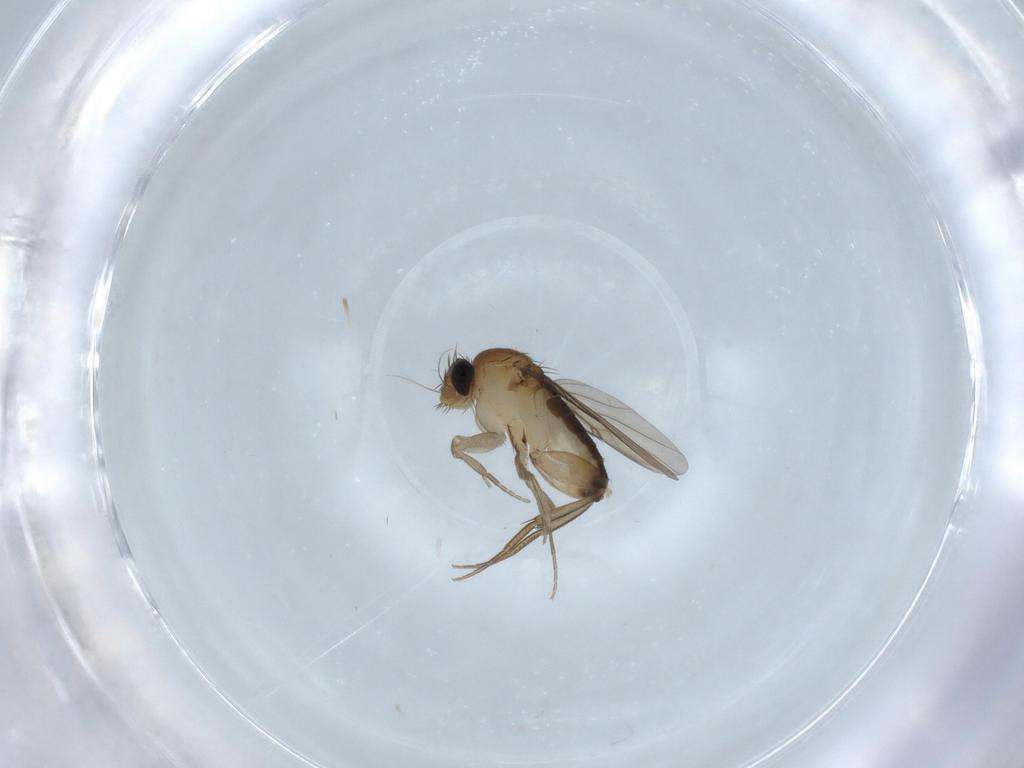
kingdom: Animalia
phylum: Arthropoda
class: Insecta
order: Diptera
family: Phoridae
